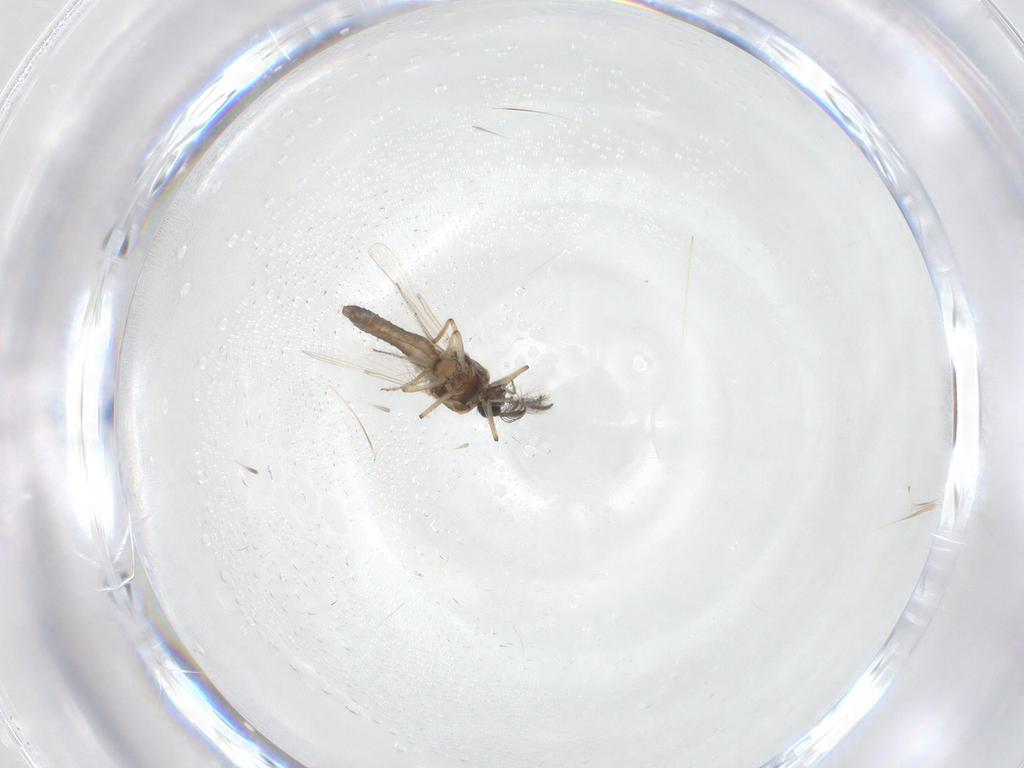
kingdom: Animalia
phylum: Arthropoda
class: Insecta
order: Diptera
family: Ceratopogonidae
